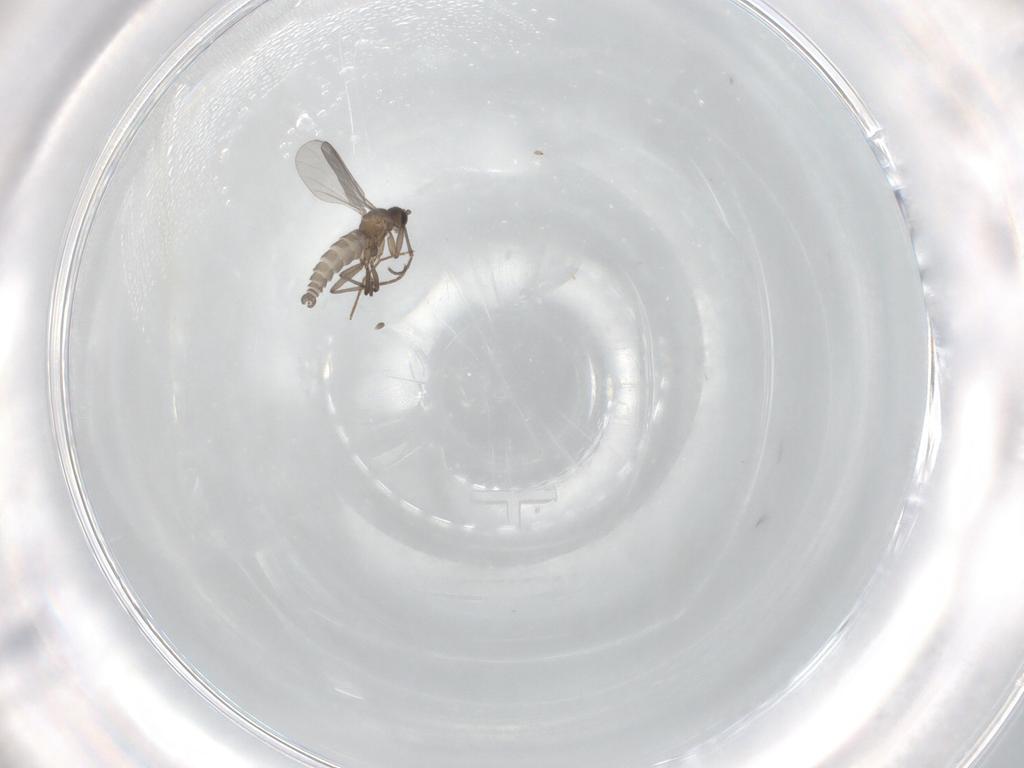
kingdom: Animalia
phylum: Arthropoda
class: Insecta
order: Diptera
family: Sciaridae
